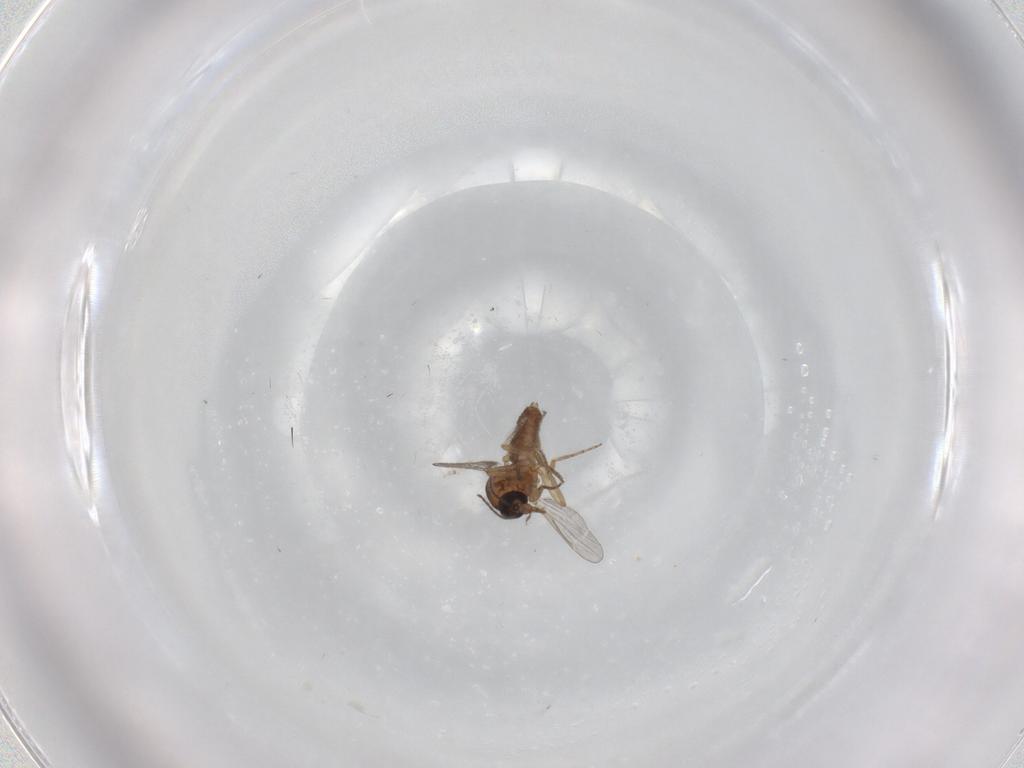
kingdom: Animalia
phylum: Arthropoda
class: Insecta
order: Diptera
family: Ceratopogonidae
